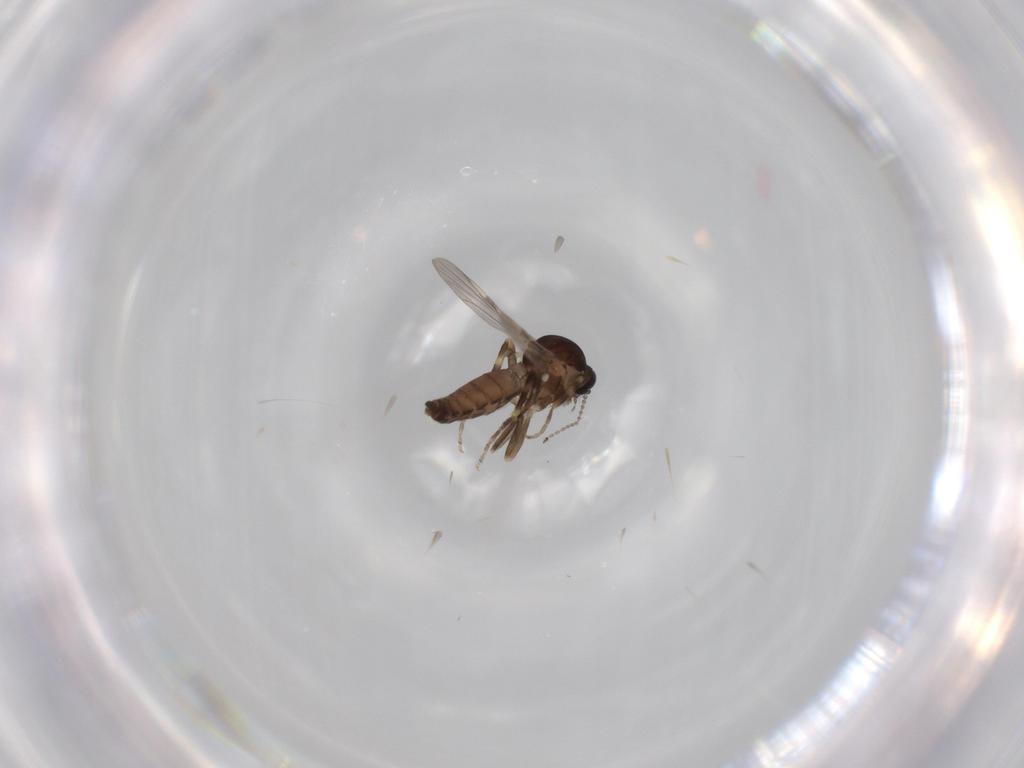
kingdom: Animalia
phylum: Arthropoda
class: Insecta
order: Diptera
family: Ceratopogonidae
